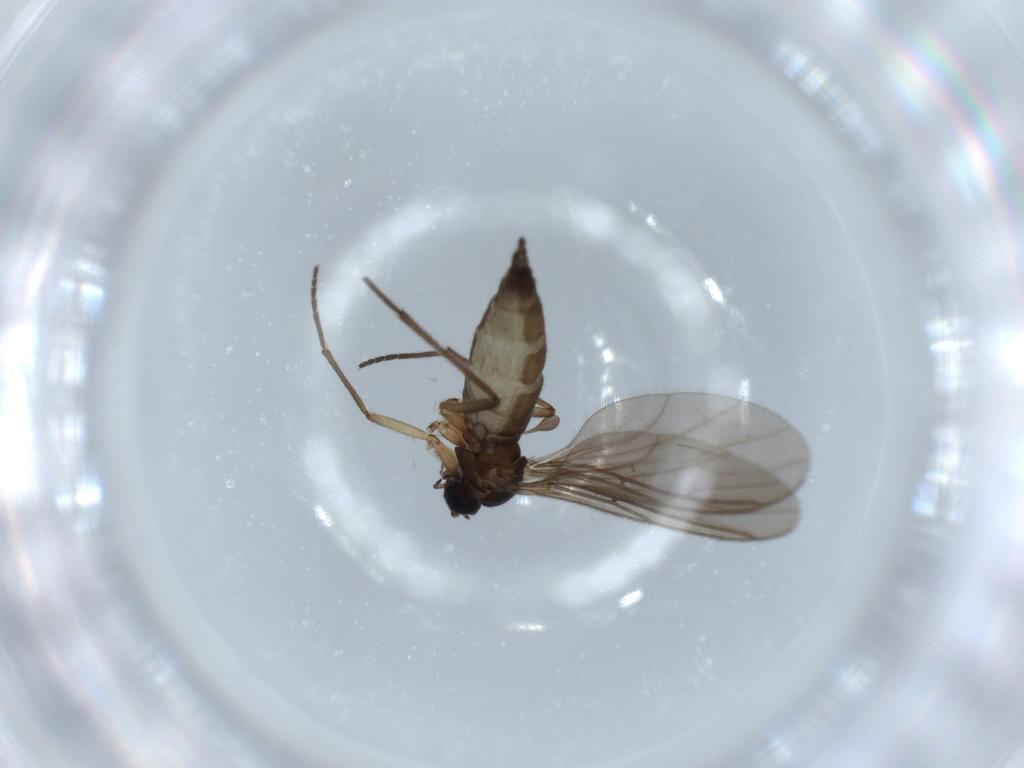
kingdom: Animalia
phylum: Arthropoda
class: Insecta
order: Diptera
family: Sciaridae
